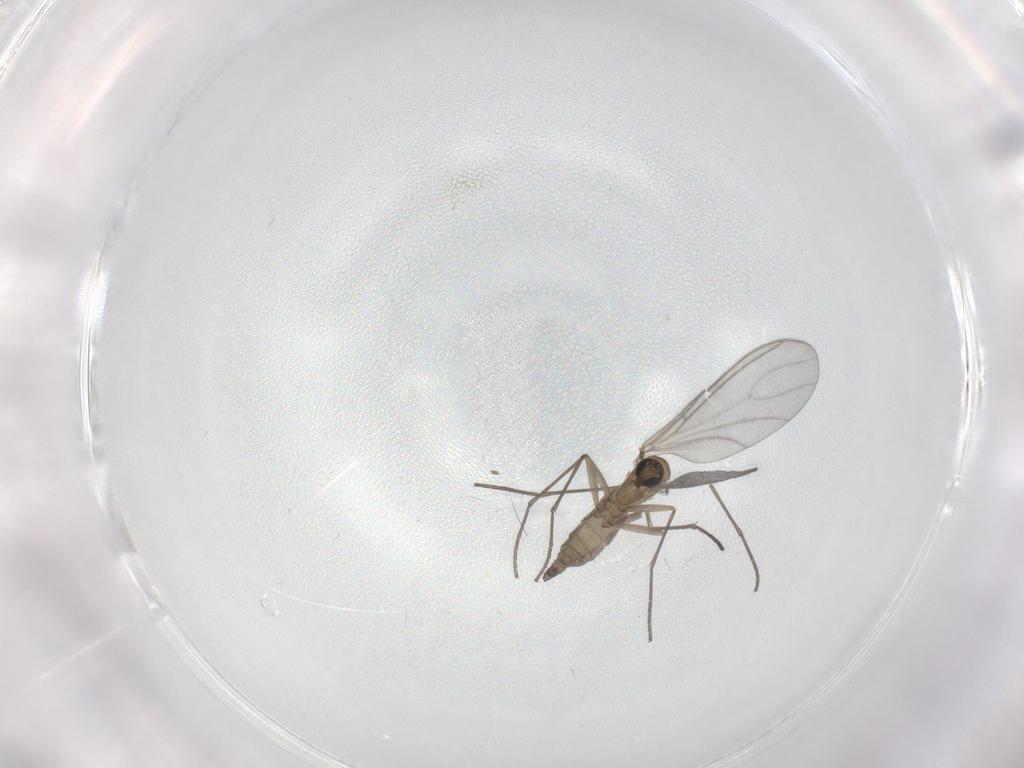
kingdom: Animalia
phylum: Arthropoda
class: Insecta
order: Diptera
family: Sciaridae
